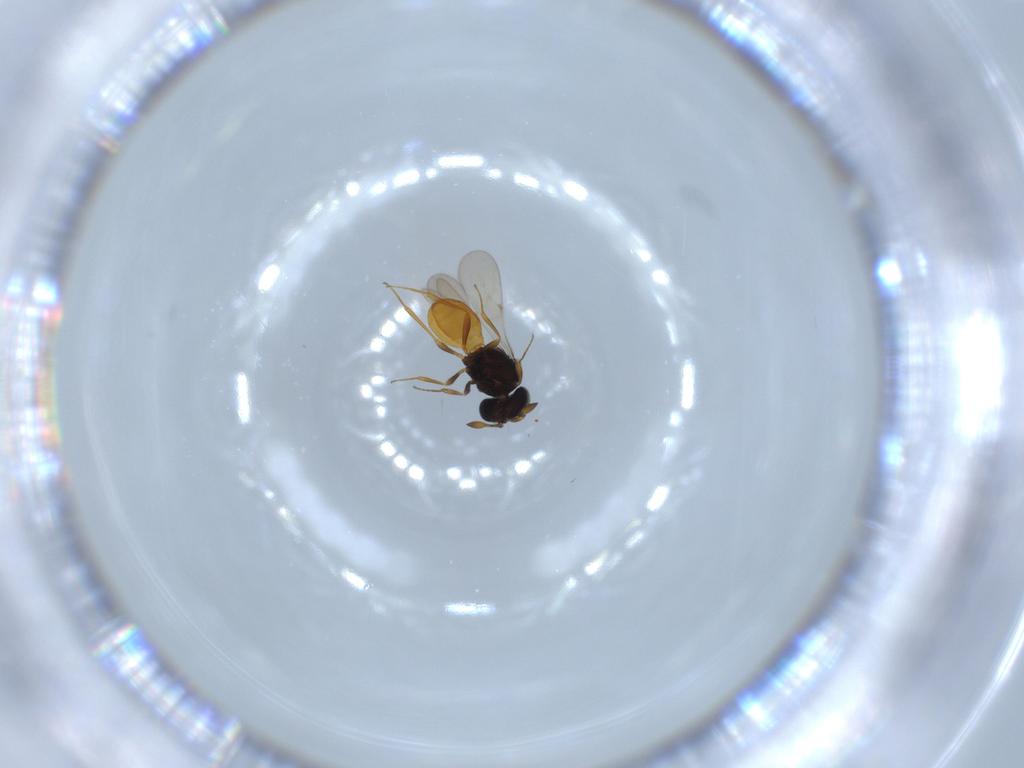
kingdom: Animalia
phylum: Arthropoda
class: Insecta
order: Hymenoptera
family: Scelionidae
